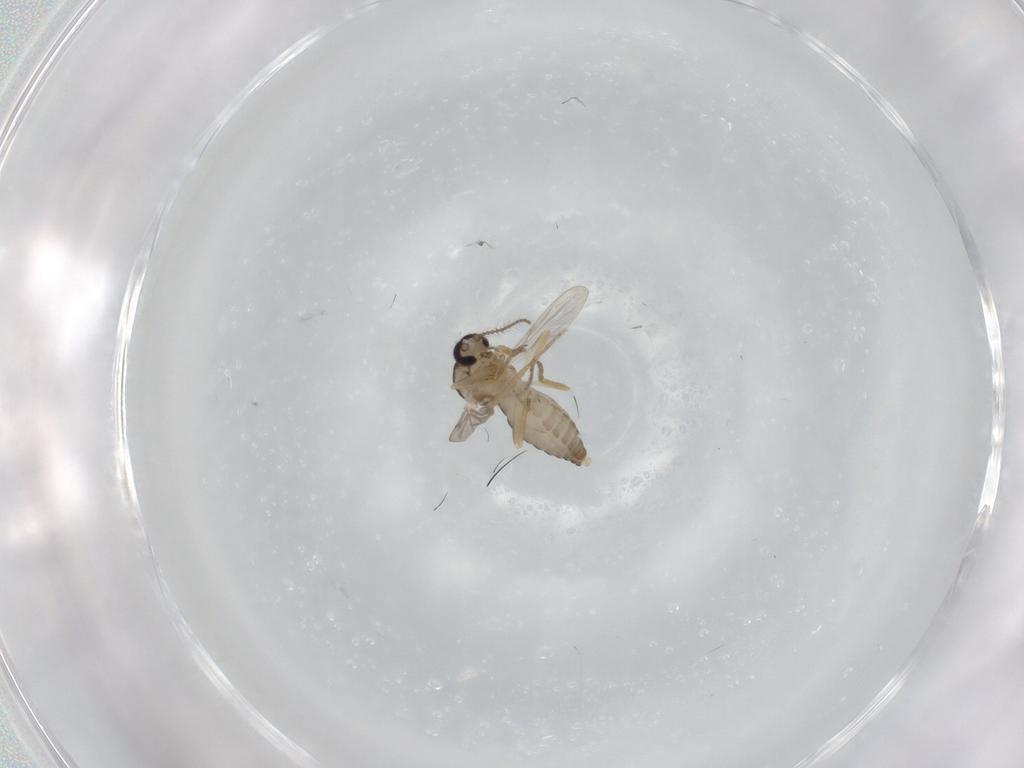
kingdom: Animalia
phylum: Arthropoda
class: Insecta
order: Diptera
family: Ceratopogonidae
